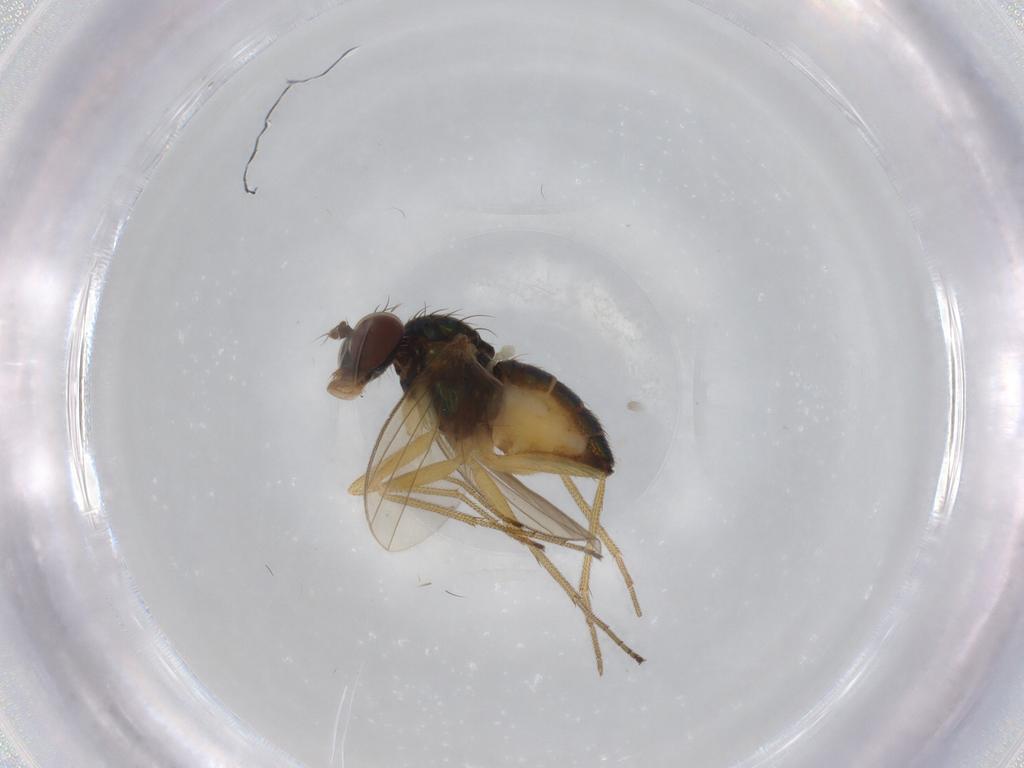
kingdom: Animalia
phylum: Arthropoda
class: Insecta
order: Diptera
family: Dolichopodidae
